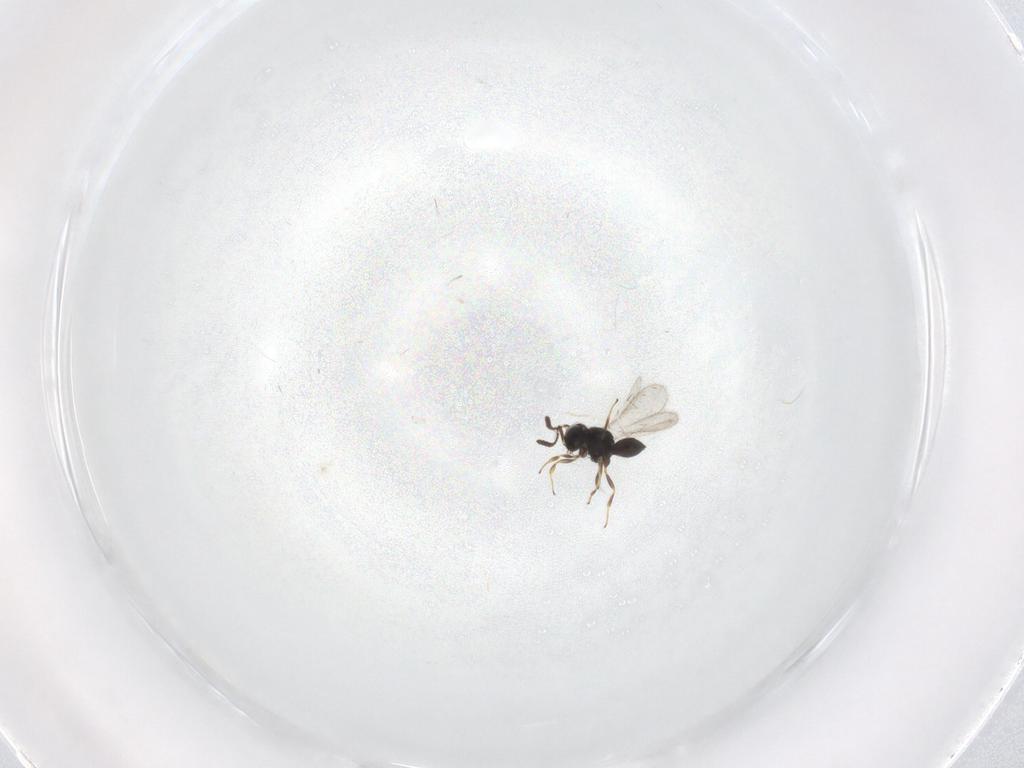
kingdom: Animalia
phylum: Arthropoda
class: Insecta
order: Hymenoptera
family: Scelionidae
